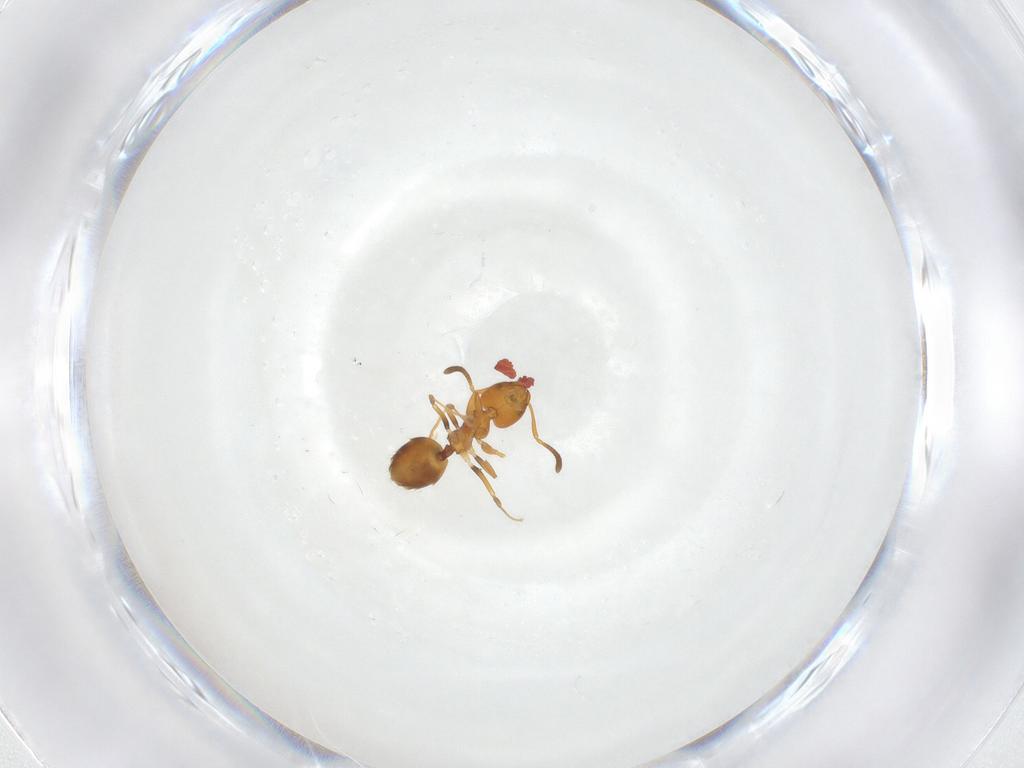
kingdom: Animalia
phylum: Arthropoda
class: Insecta
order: Hymenoptera
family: Formicidae
